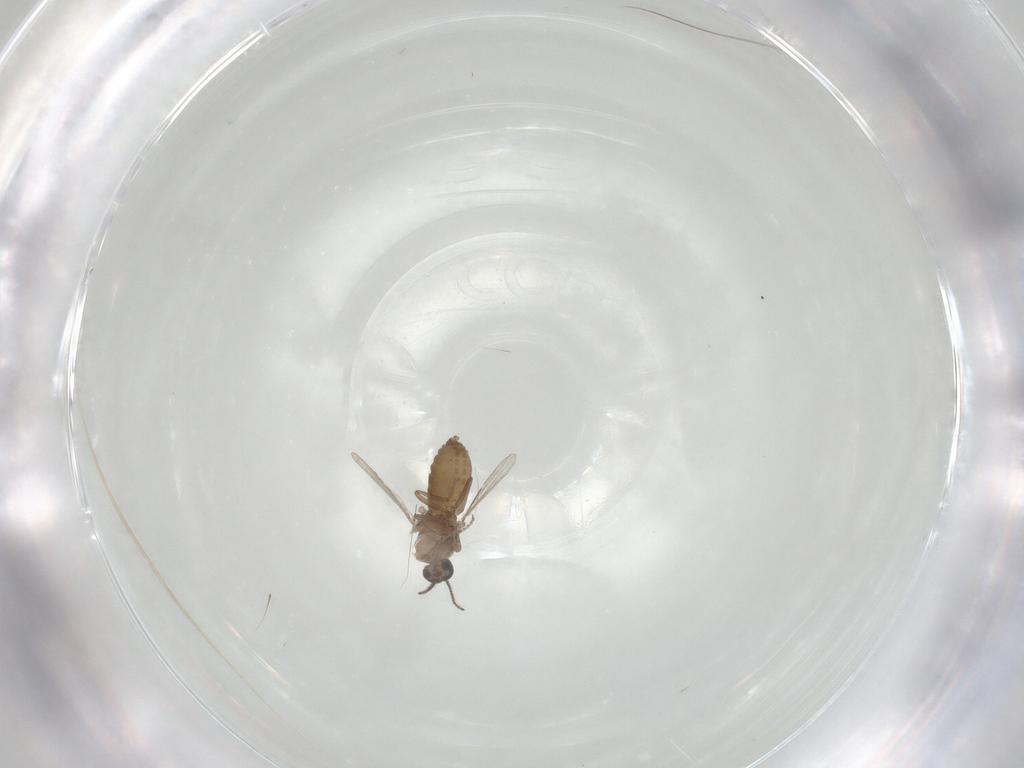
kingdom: Animalia
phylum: Arthropoda
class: Insecta
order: Diptera
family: Ceratopogonidae
